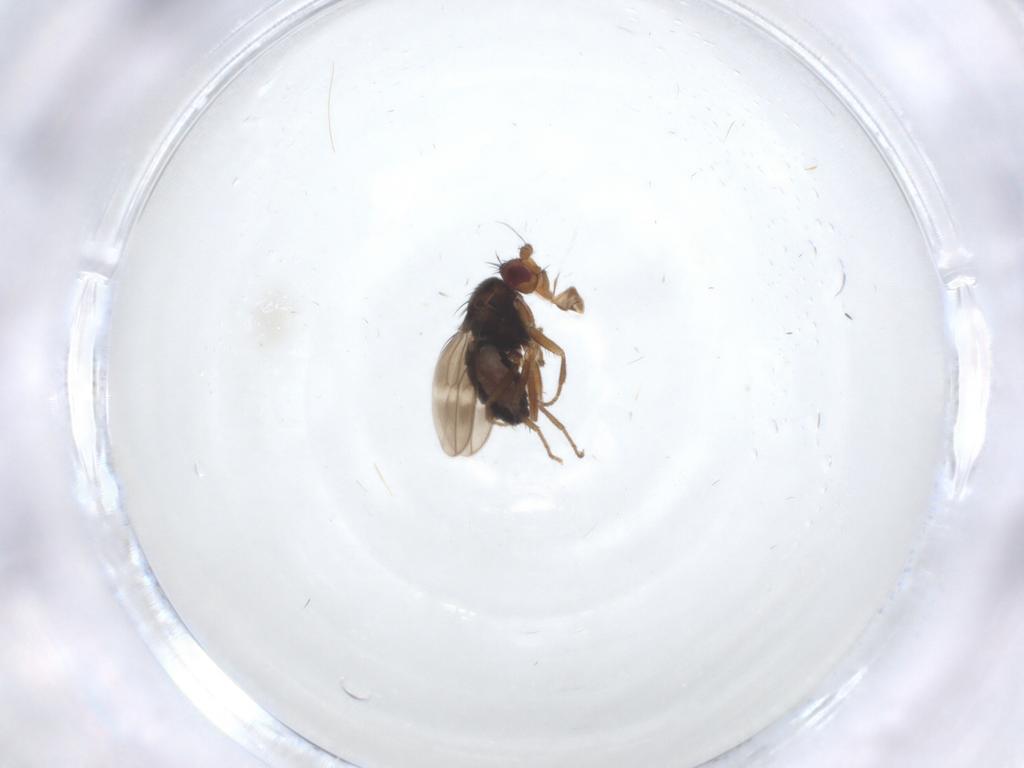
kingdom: Animalia
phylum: Arthropoda
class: Insecta
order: Diptera
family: Sphaeroceridae
